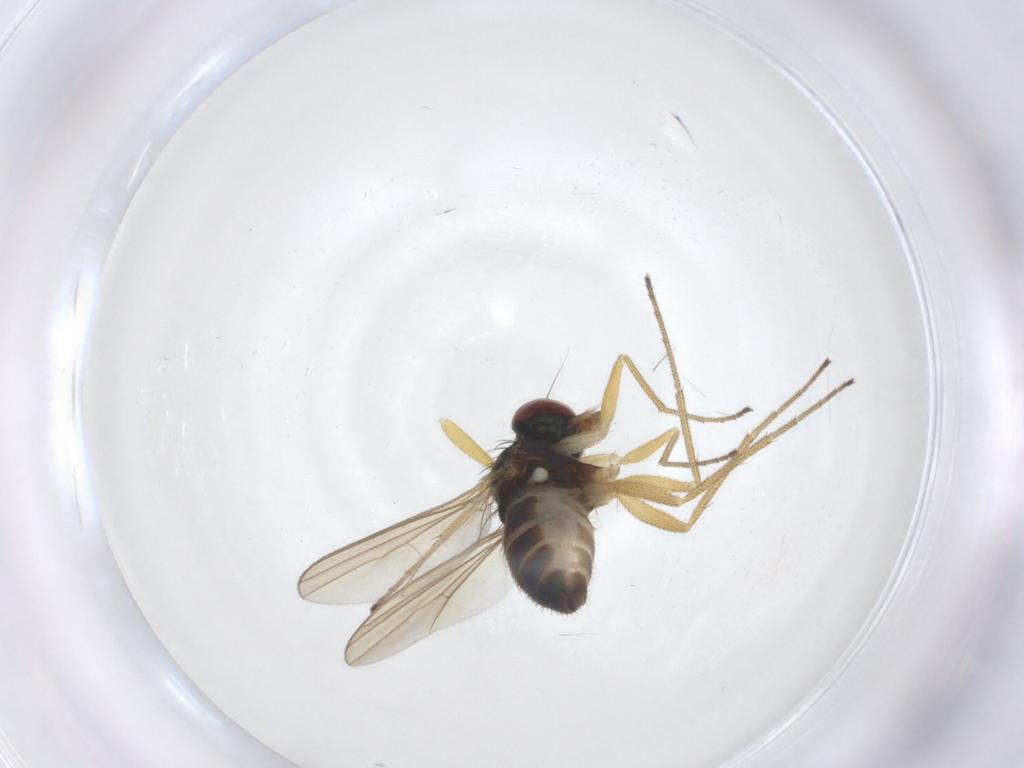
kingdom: Animalia
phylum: Arthropoda
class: Insecta
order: Diptera
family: Dolichopodidae
